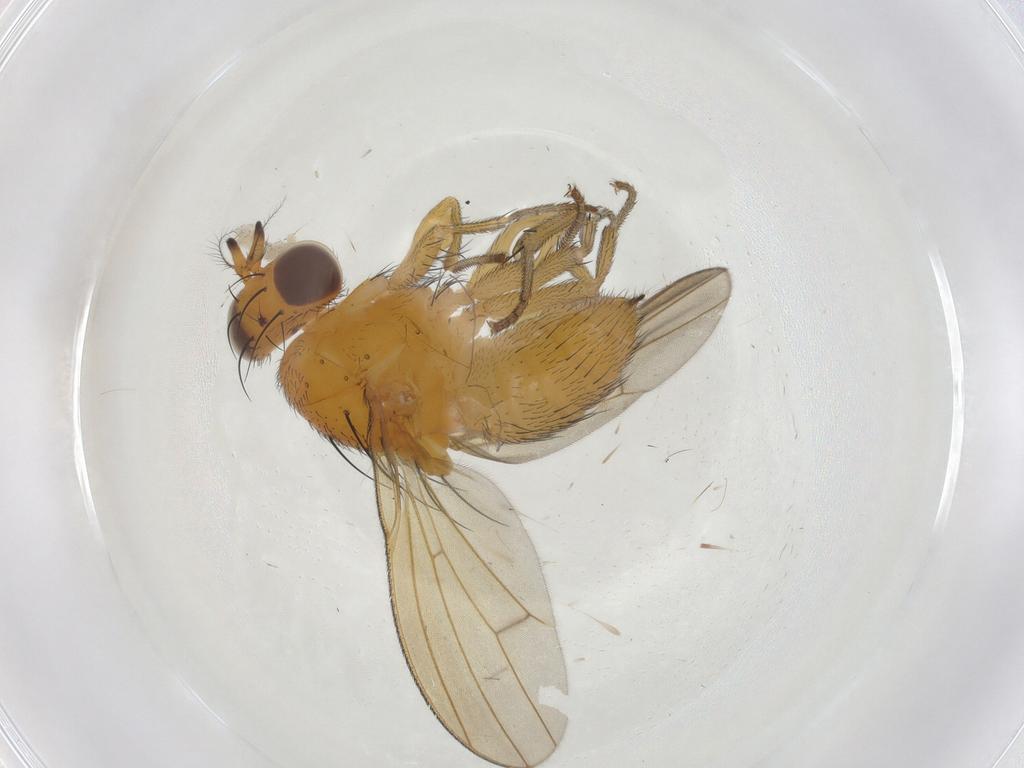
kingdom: Animalia
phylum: Arthropoda
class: Insecta
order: Diptera
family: Lauxaniidae
